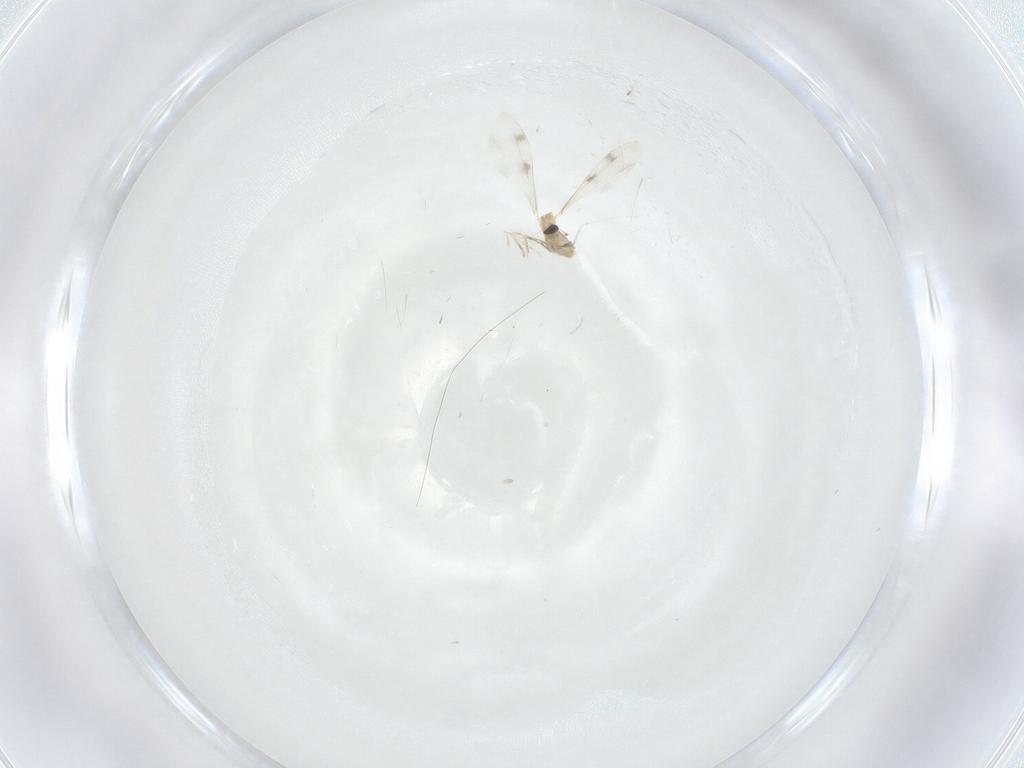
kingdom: Animalia
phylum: Arthropoda
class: Insecta
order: Diptera
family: Cecidomyiidae
